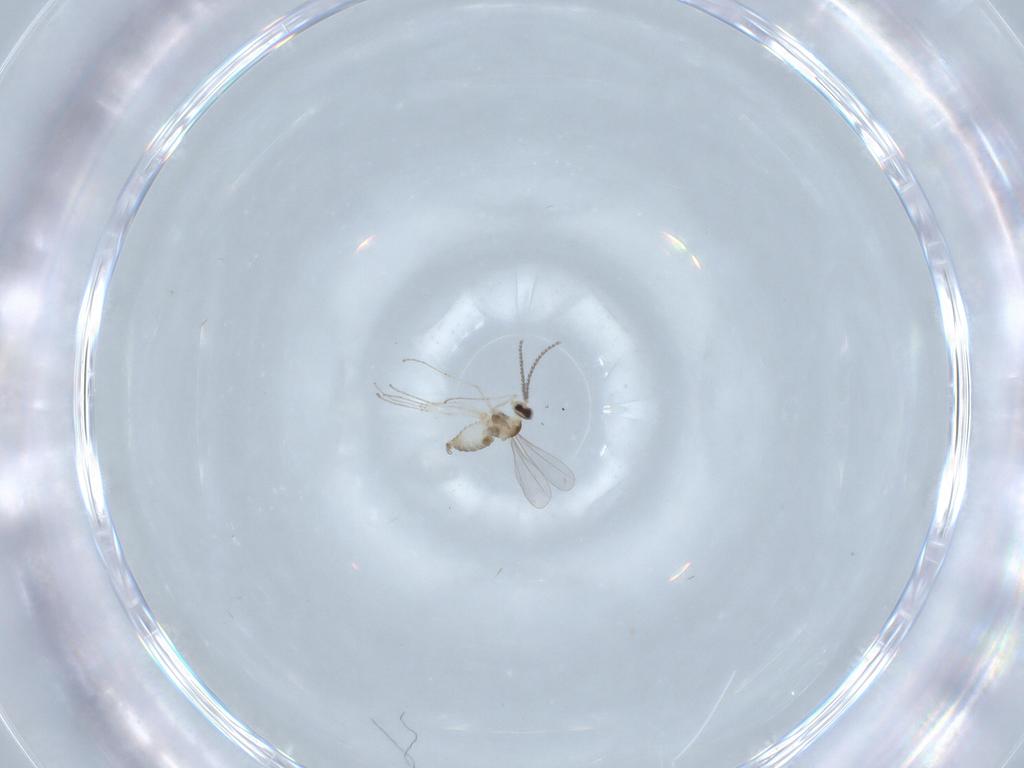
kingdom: Animalia
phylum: Arthropoda
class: Insecta
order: Diptera
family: Cecidomyiidae
